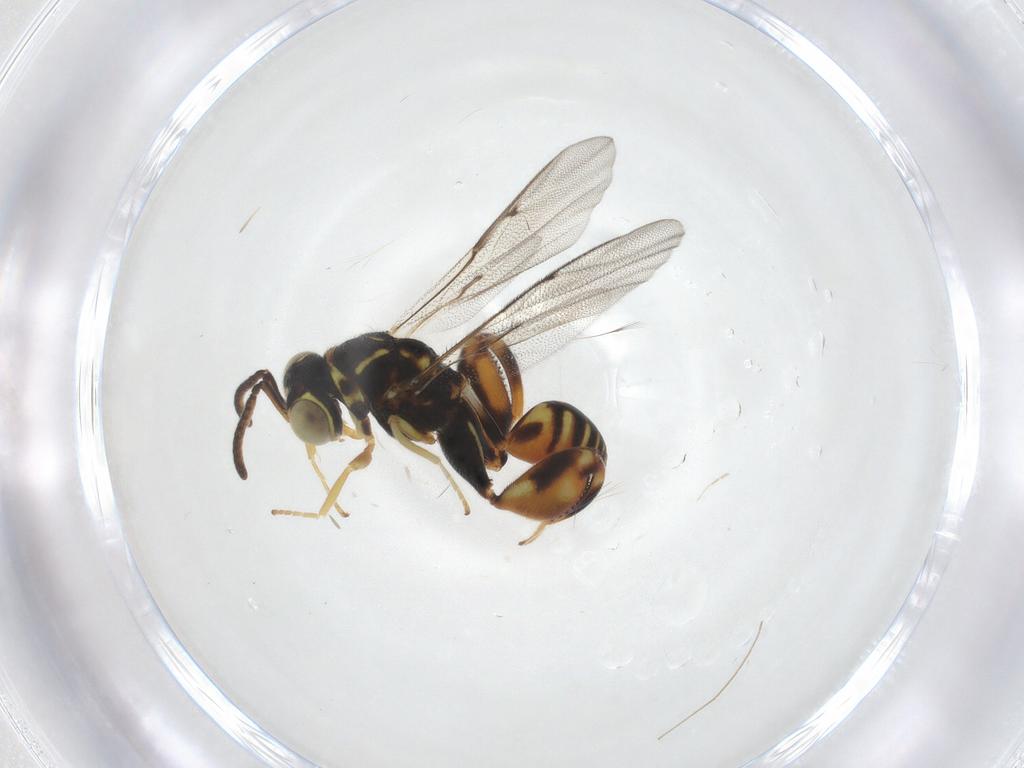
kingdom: Animalia
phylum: Arthropoda
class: Insecta
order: Hymenoptera
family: Chalcididae
